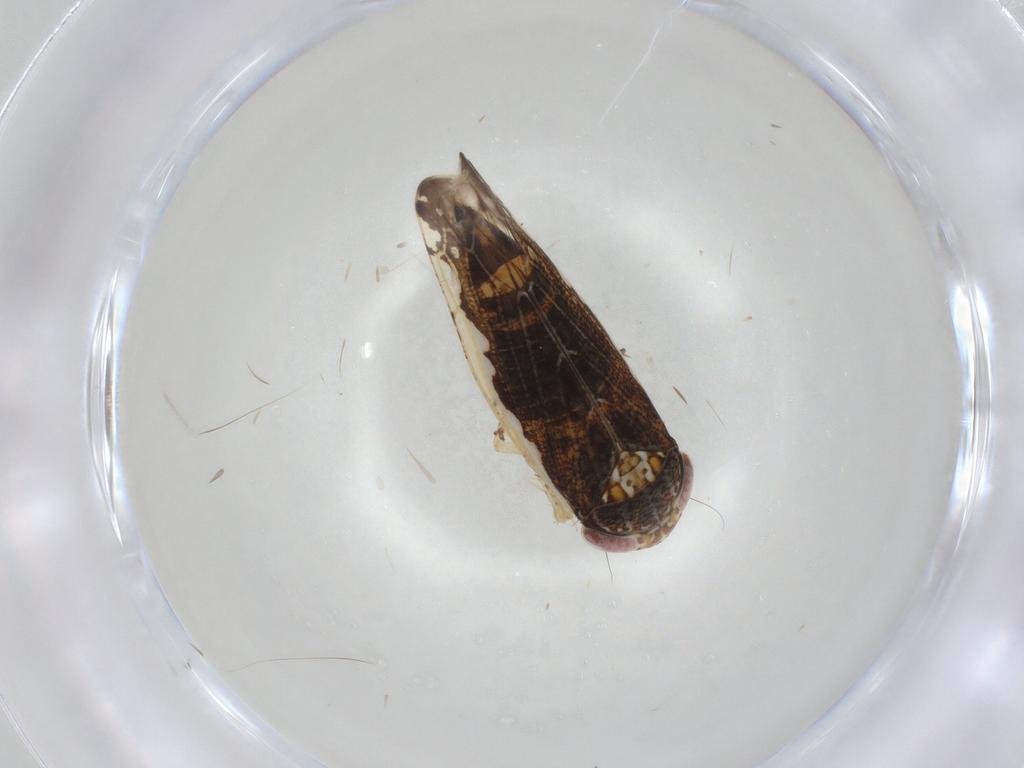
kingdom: Animalia
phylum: Arthropoda
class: Insecta
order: Hemiptera
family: Cicadellidae
